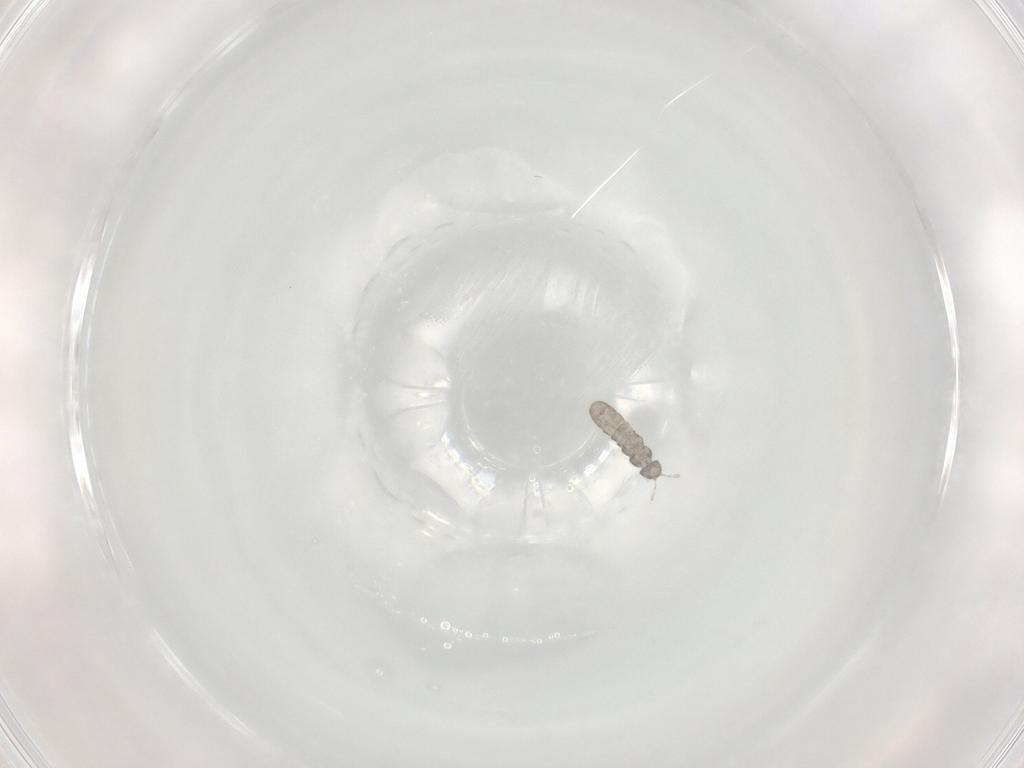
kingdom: Animalia
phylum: Arthropoda
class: Collembola
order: Entomobryomorpha
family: Isotomidae
